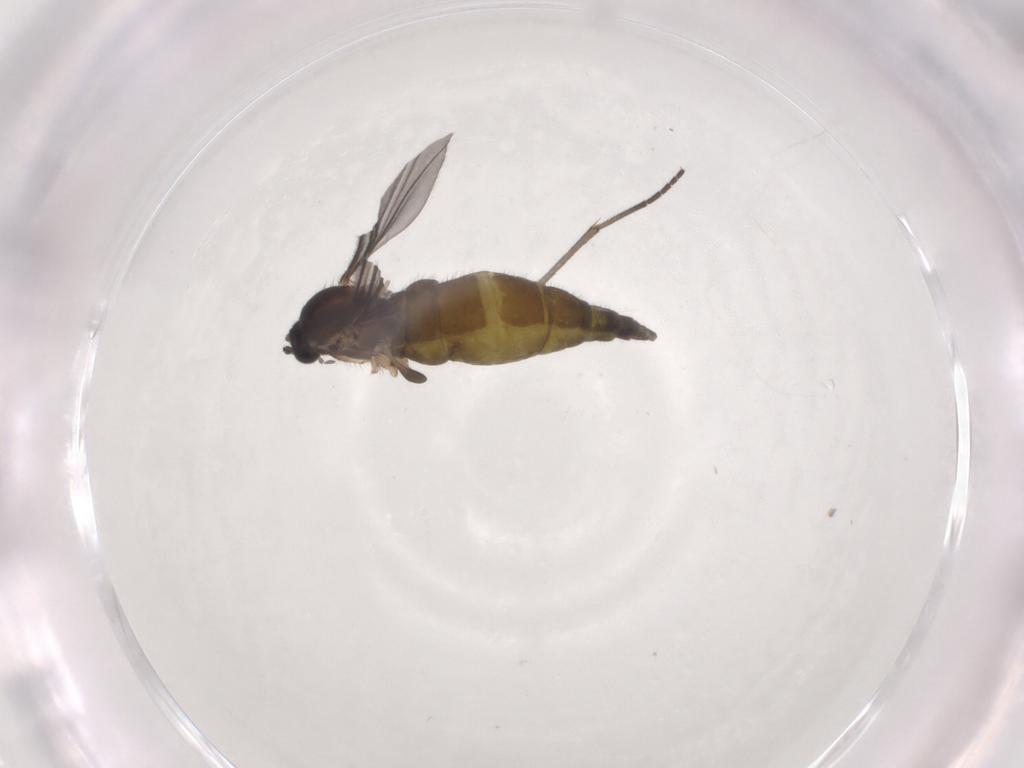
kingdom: Animalia
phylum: Arthropoda
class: Insecta
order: Diptera
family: Sciaridae
